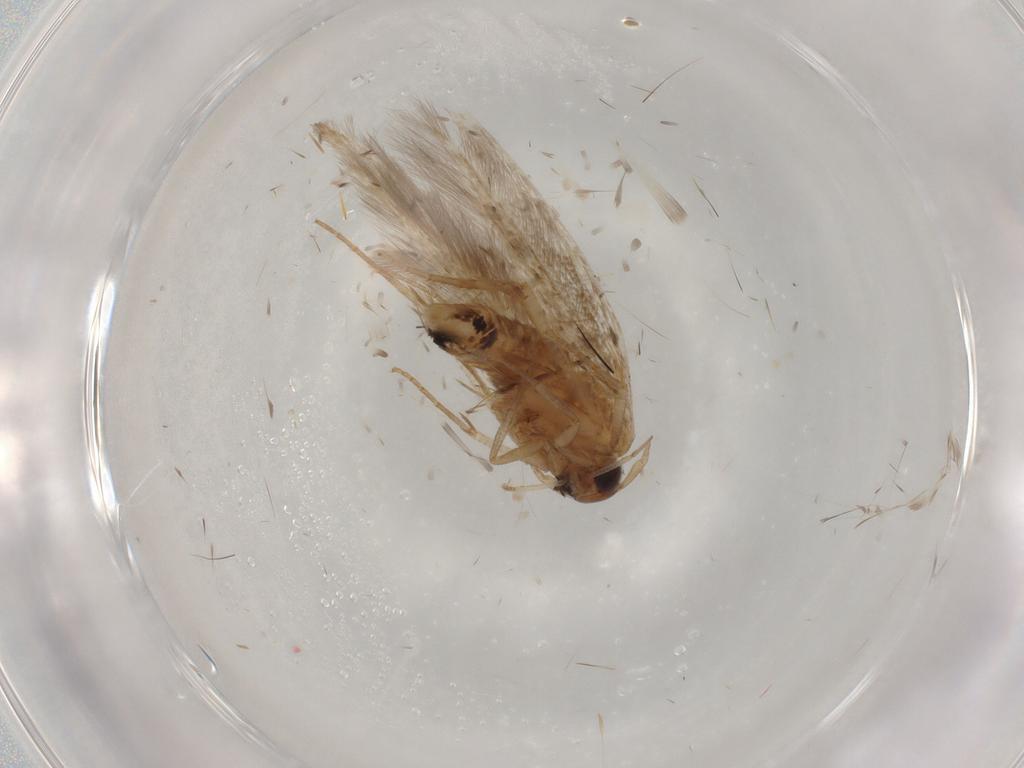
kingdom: Animalia
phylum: Arthropoda
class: Insecta
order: Lepidoptera
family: Cosmopterigidae
